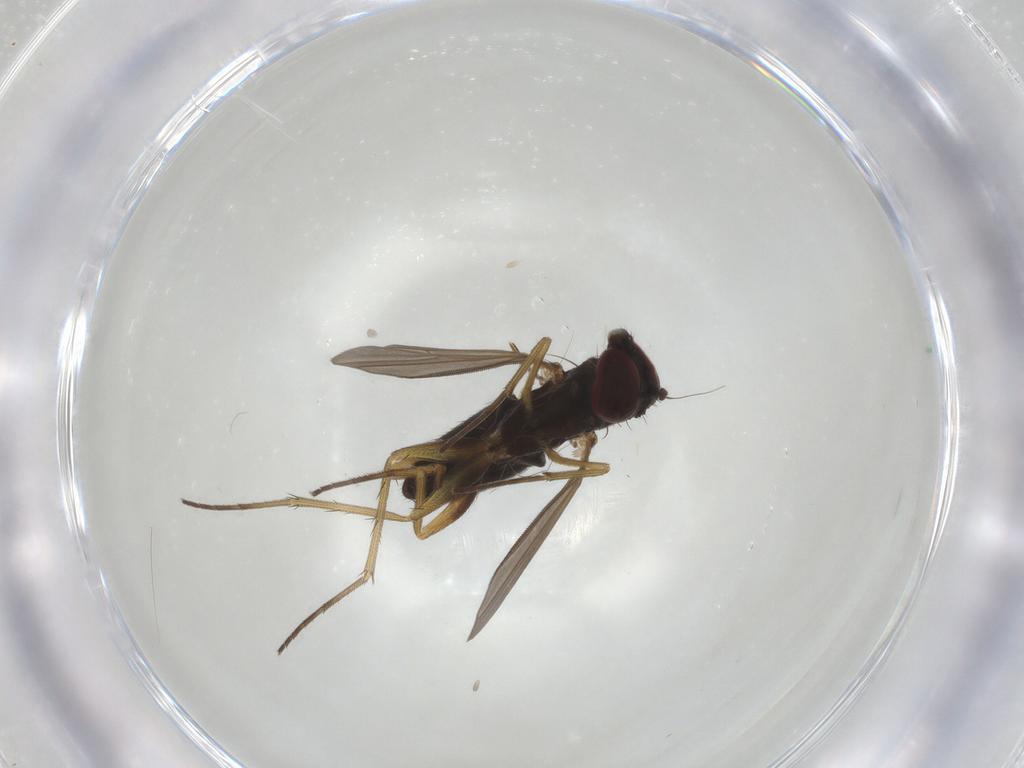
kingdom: Animalia
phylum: Arthropoda
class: Insecta
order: Diptera
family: Dolichopodidae
